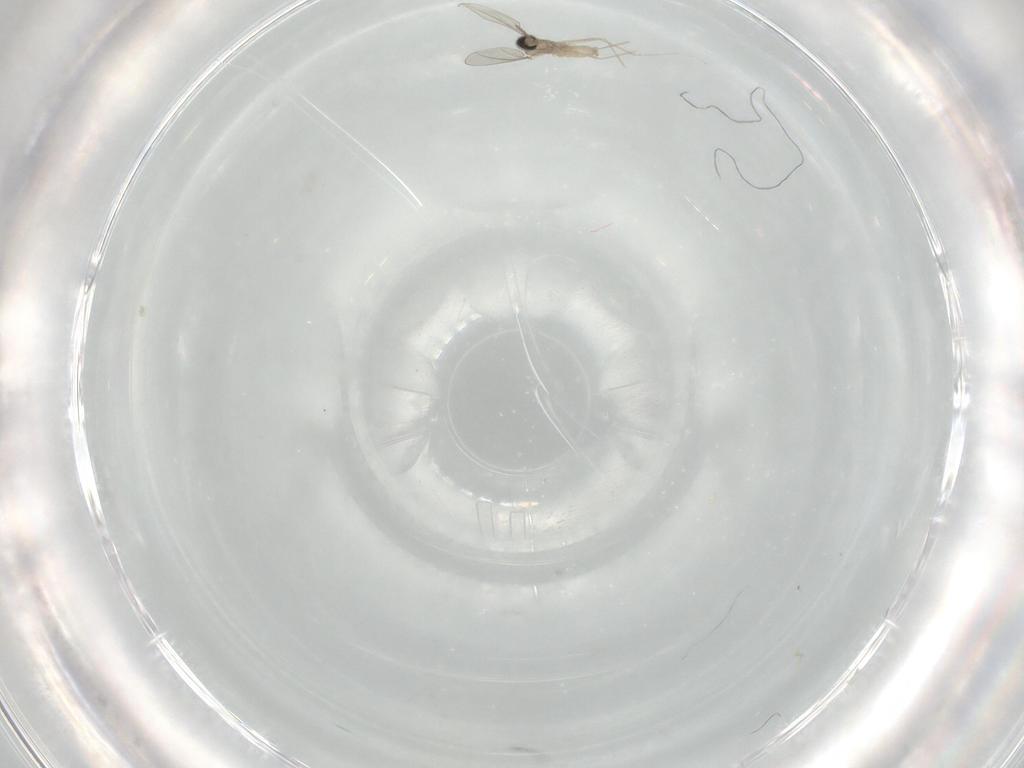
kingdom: Animalia
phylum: Arthropoda
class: Insecta
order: Diptera
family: Cecidomyiidae
